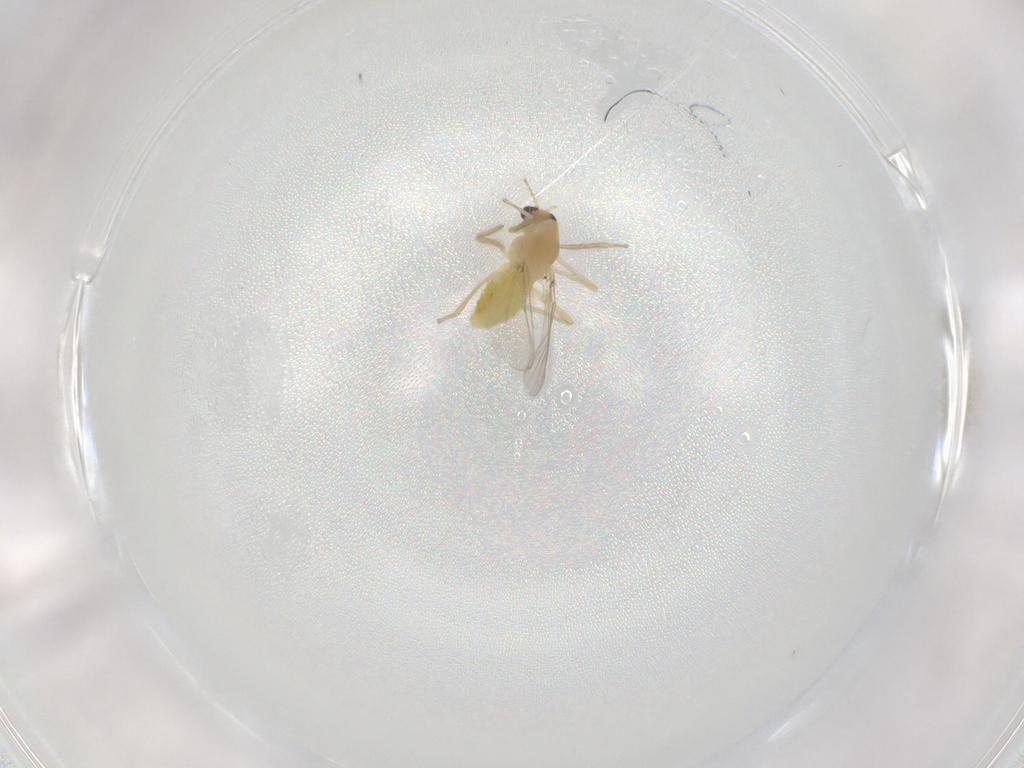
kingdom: Animalia
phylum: Arthropoda
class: Insecta
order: Diptera
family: Chironomidae
